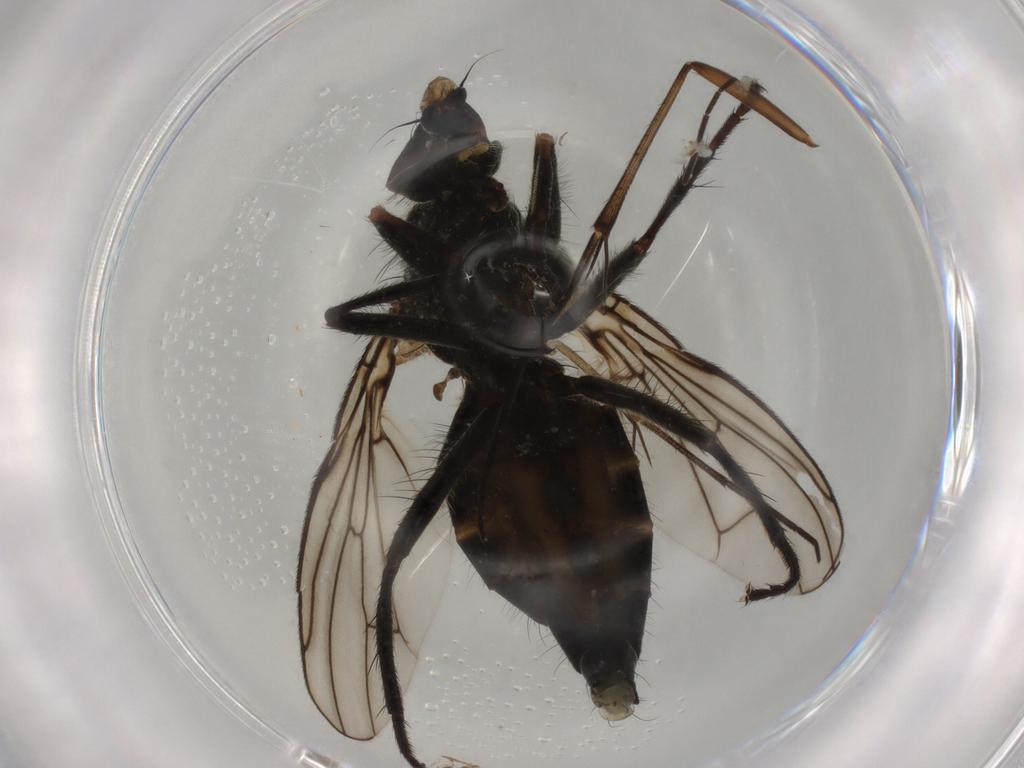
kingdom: Animalia
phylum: Arthropoda
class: Insecta
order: Diptera
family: Scathophagidae
